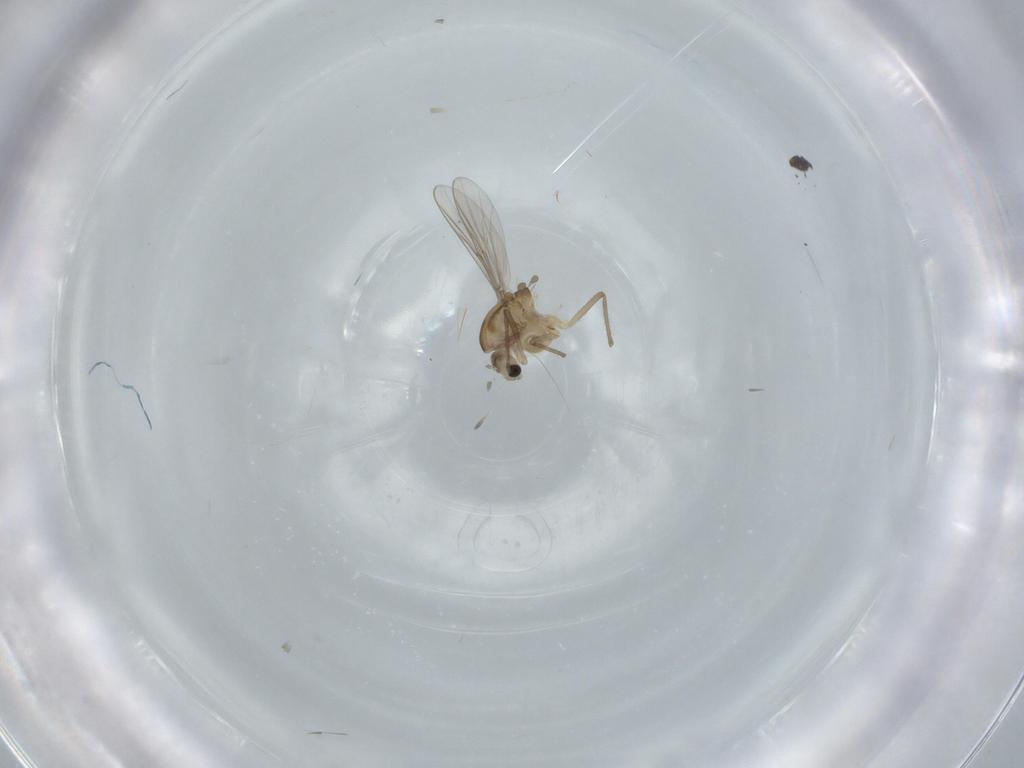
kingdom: Animalia
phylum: Arthropoda
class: Insecta
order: Diptera
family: Chironomidae
